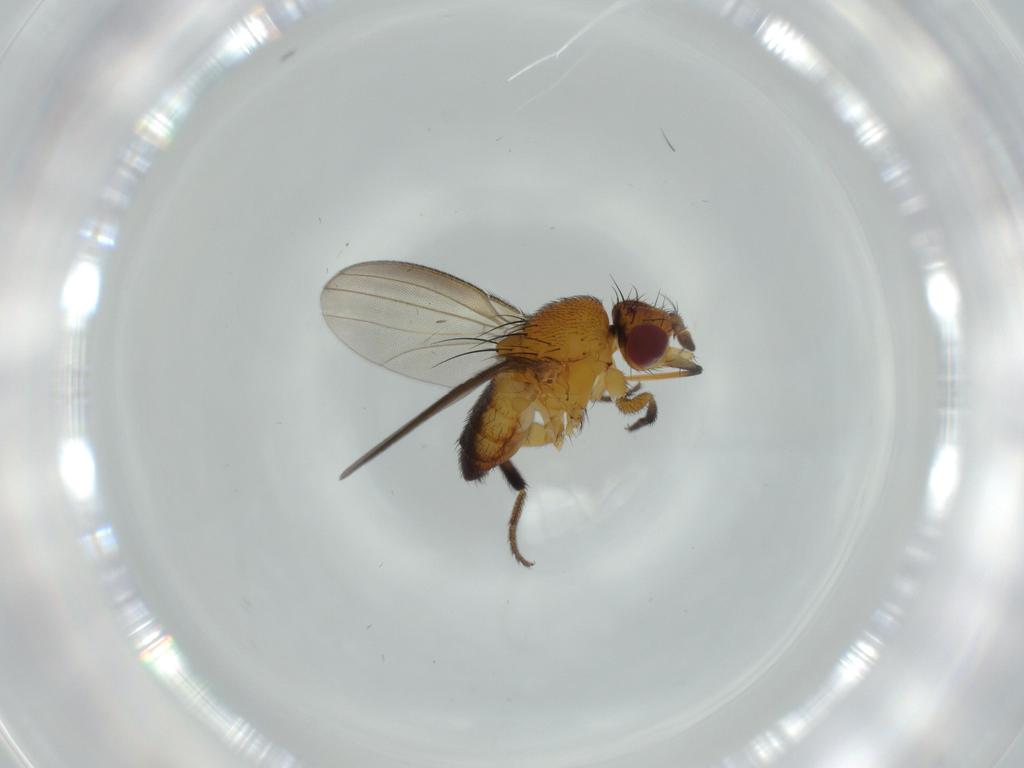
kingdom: Animalia
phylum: Arthropoda
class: Insecta
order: Diptera
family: Milichiidae
